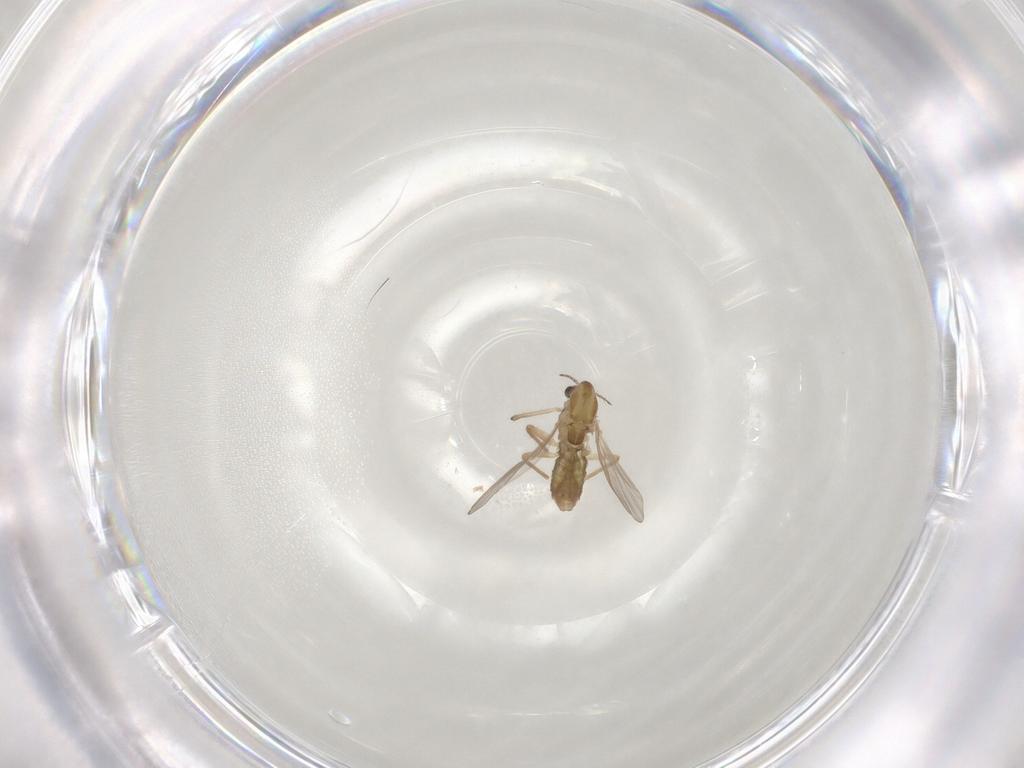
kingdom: Animalia
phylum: Arthropoda
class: Insecta
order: Diptera
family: Chironomidae
